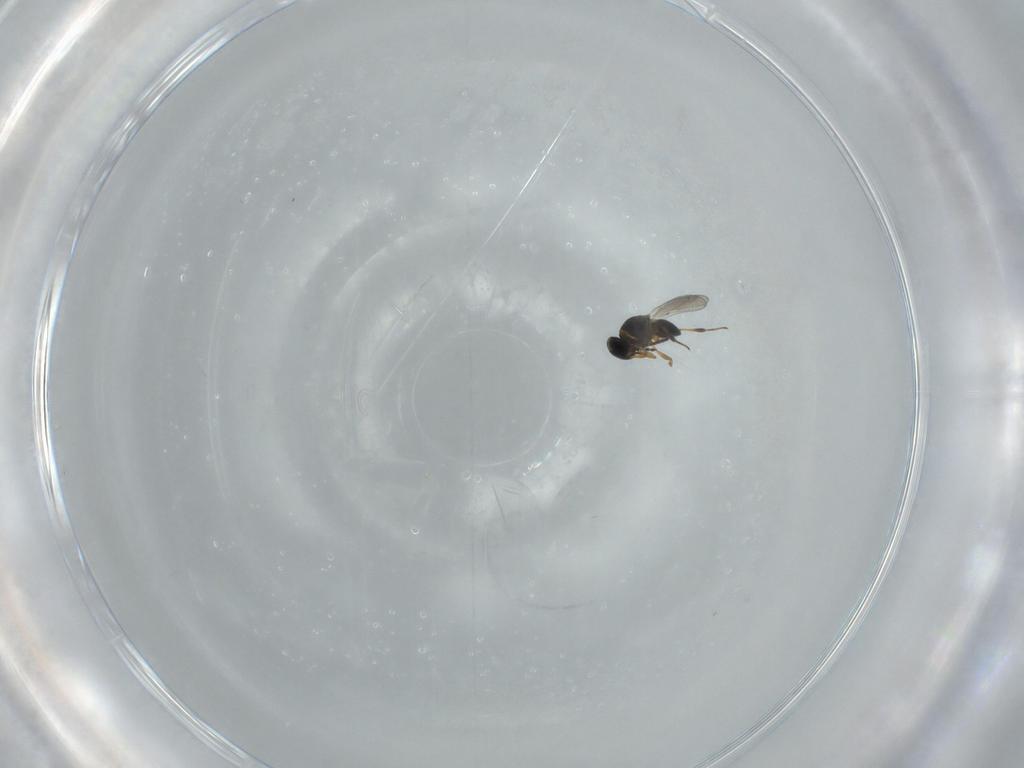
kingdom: Animalia
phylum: Arthropoda
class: Insecta
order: Hymenoptera
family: Platygastridae
